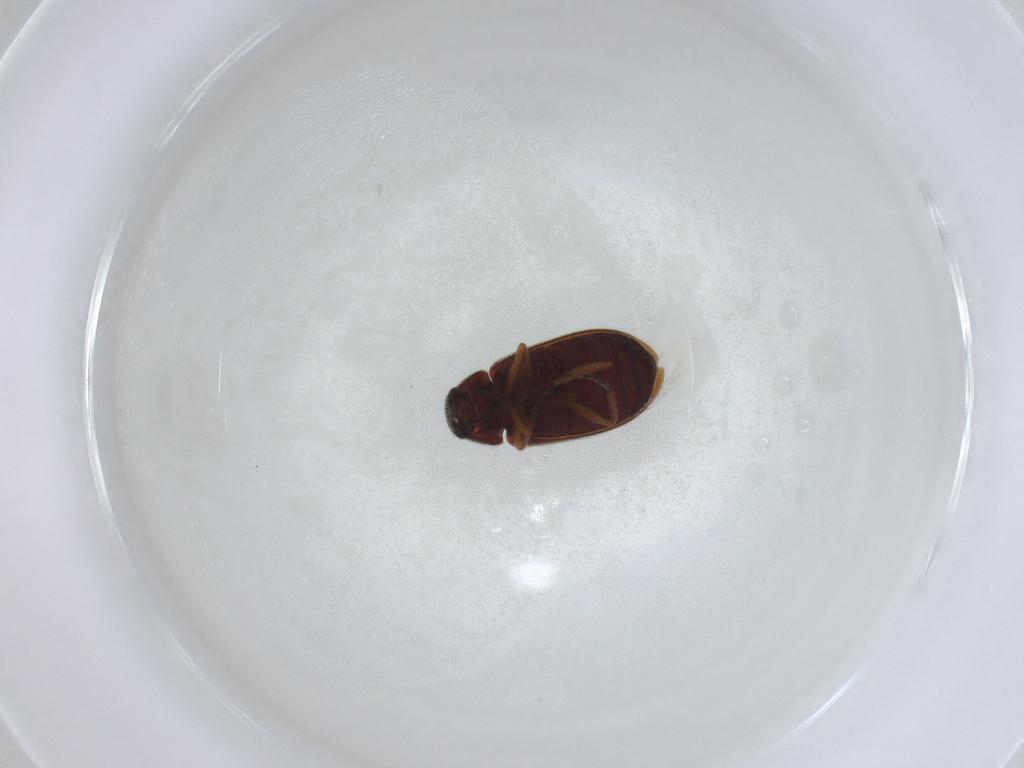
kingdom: Animalia
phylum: Arthropoda
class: Insecta
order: Coleoptera
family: Rhadalidae
